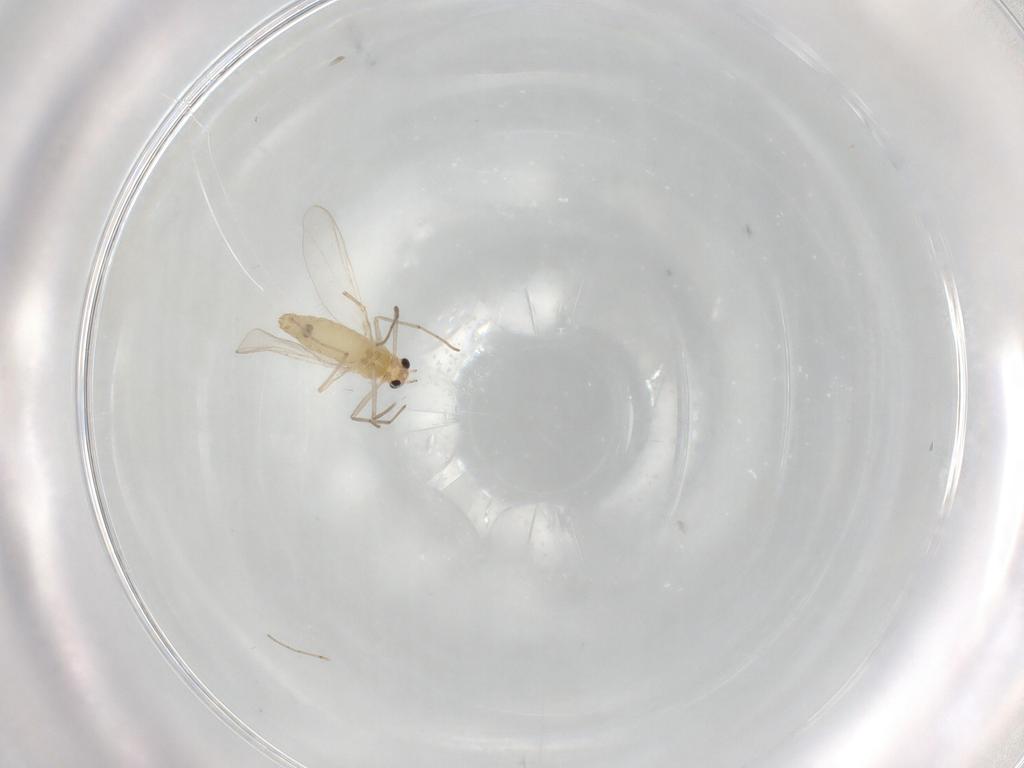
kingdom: Animalia
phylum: Arthropoda
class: Insecta
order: Diptera
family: Chironomidae
